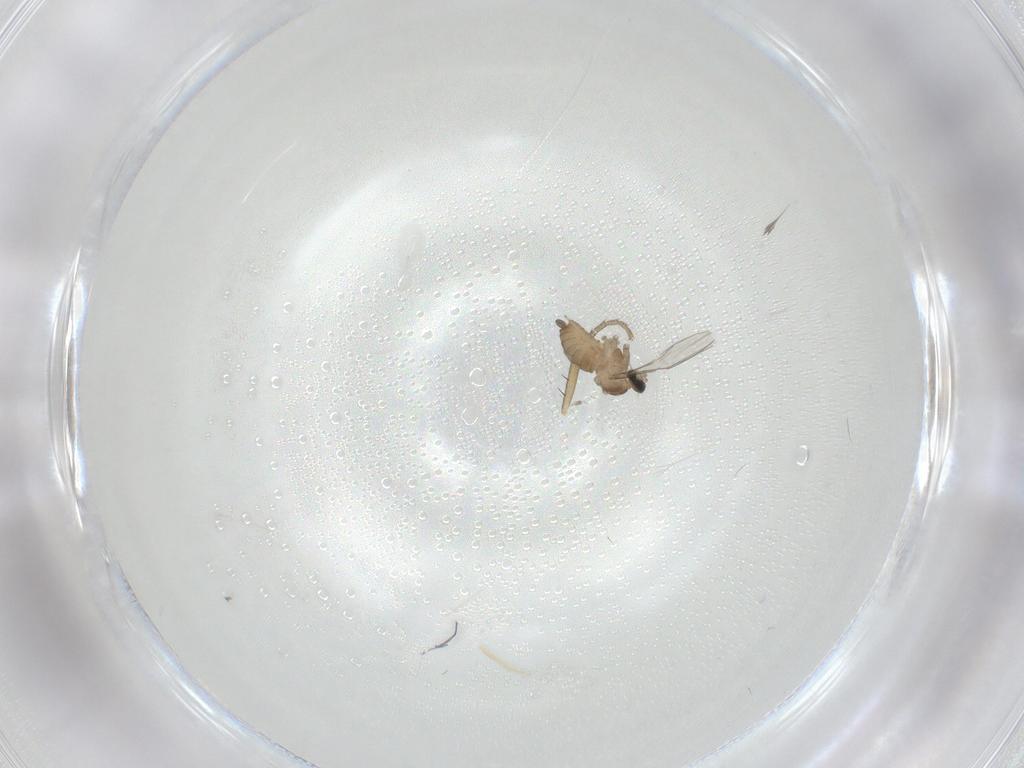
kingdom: Animalia
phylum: Arthropoda
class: Insecta
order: Diptera
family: Cecidomyiidae
